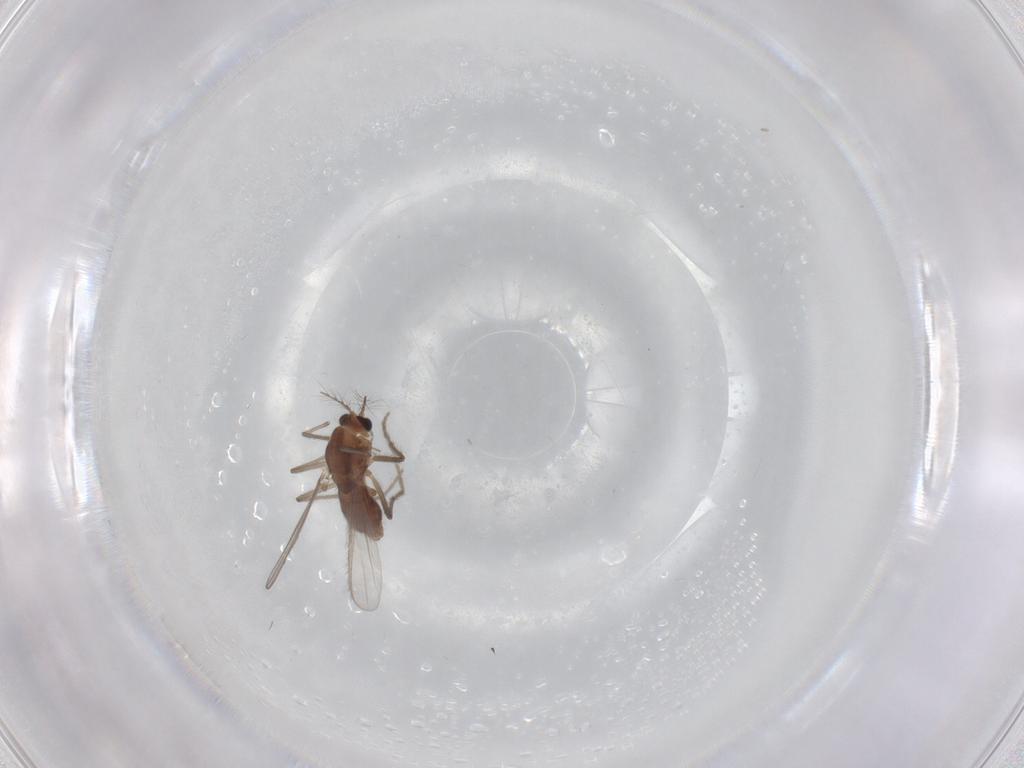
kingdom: Animalia
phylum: Arthropoda
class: Insecta
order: Diptera
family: Chironomidae
